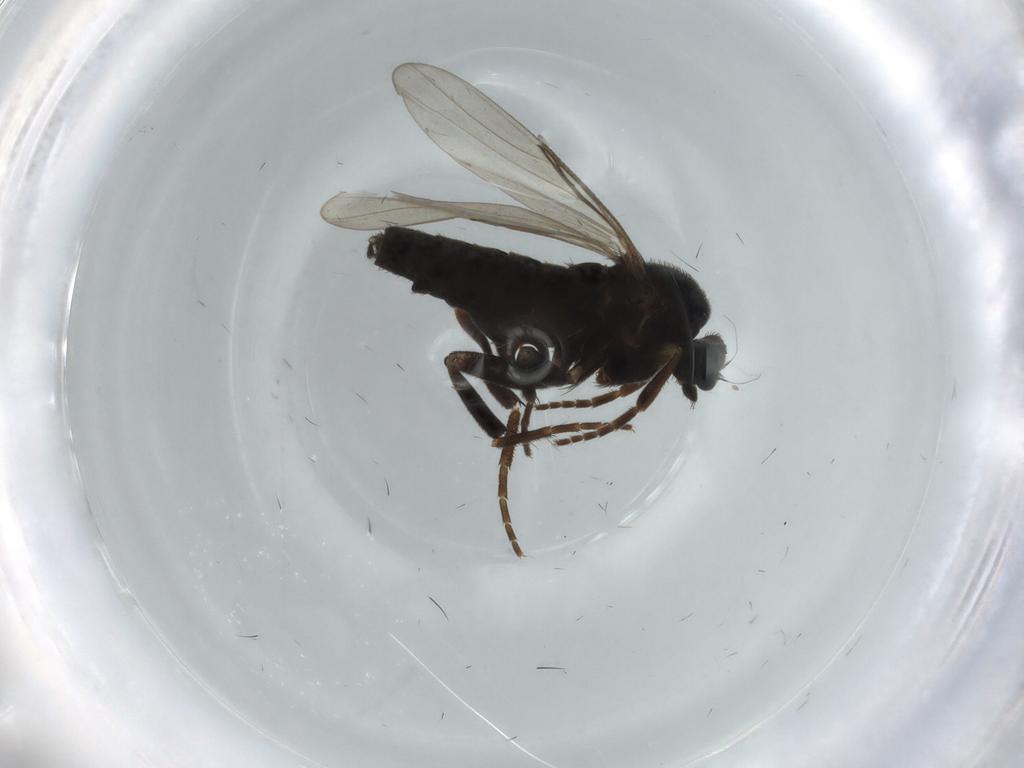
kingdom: Animalia
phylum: Arthropoda
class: Insecta
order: Diptera
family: Phoridae
